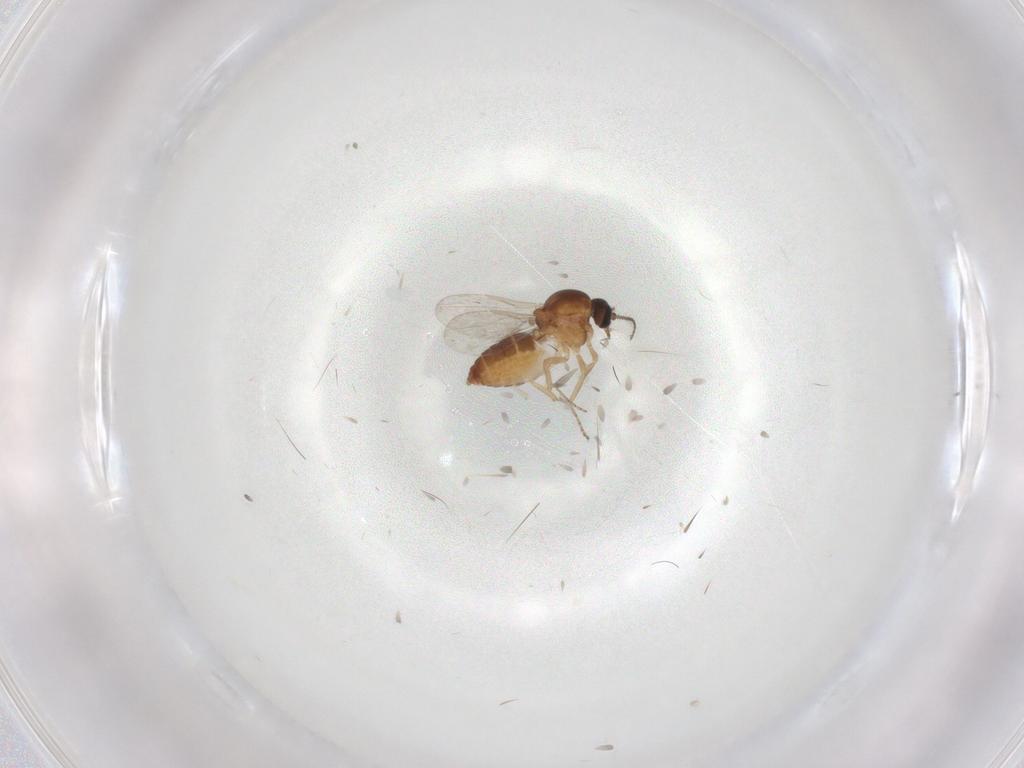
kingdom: Animalia
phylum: Arthropoda
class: Insecta
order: Diptera
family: Ceratopogonidae
